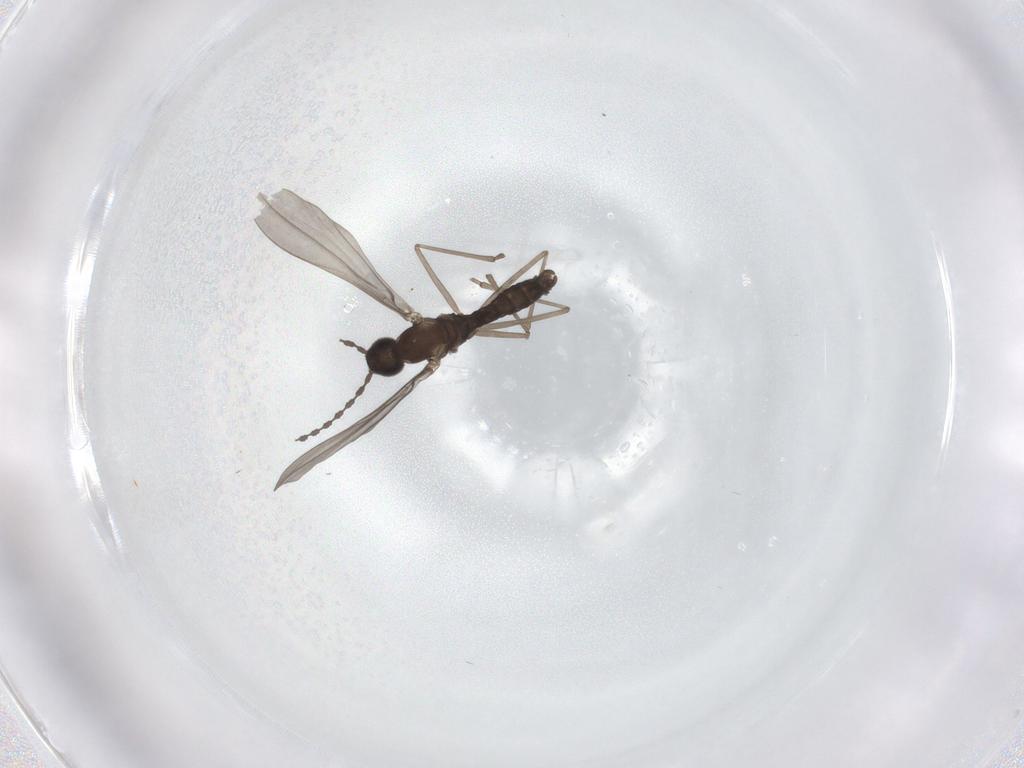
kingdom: Animalia
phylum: Arthropoda
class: Insecta
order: Diptera
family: Cecidomyiidae
